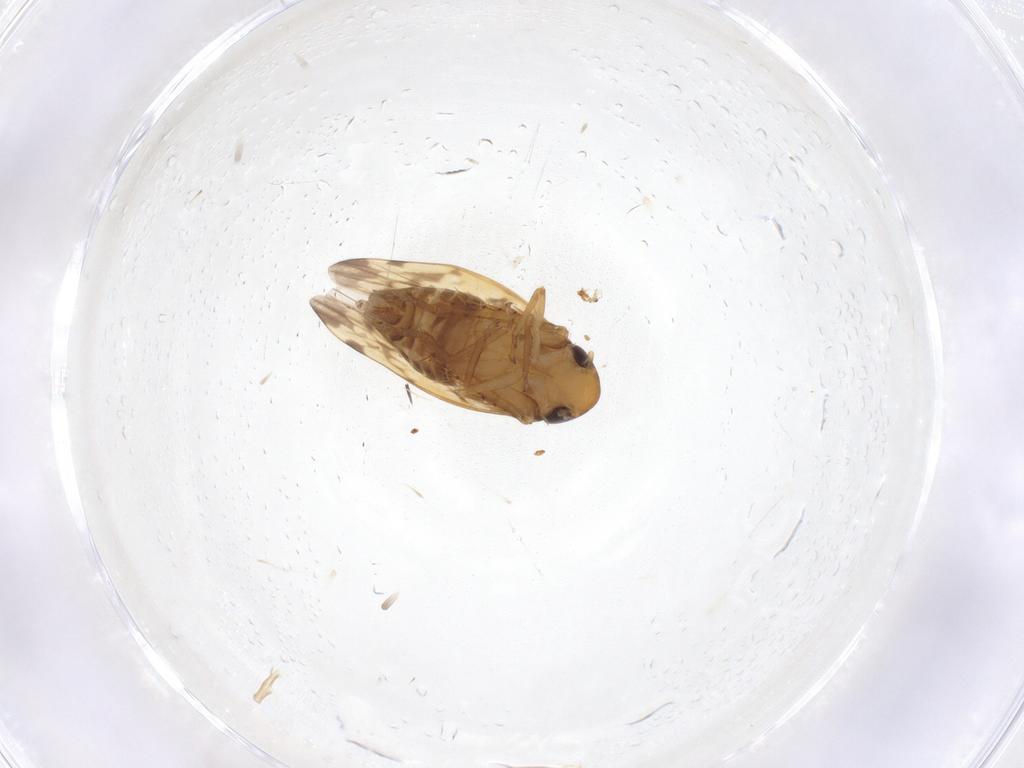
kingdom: Animalia
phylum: Arthropoda
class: Insecta
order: Hemiptera
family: Cicadellidae
